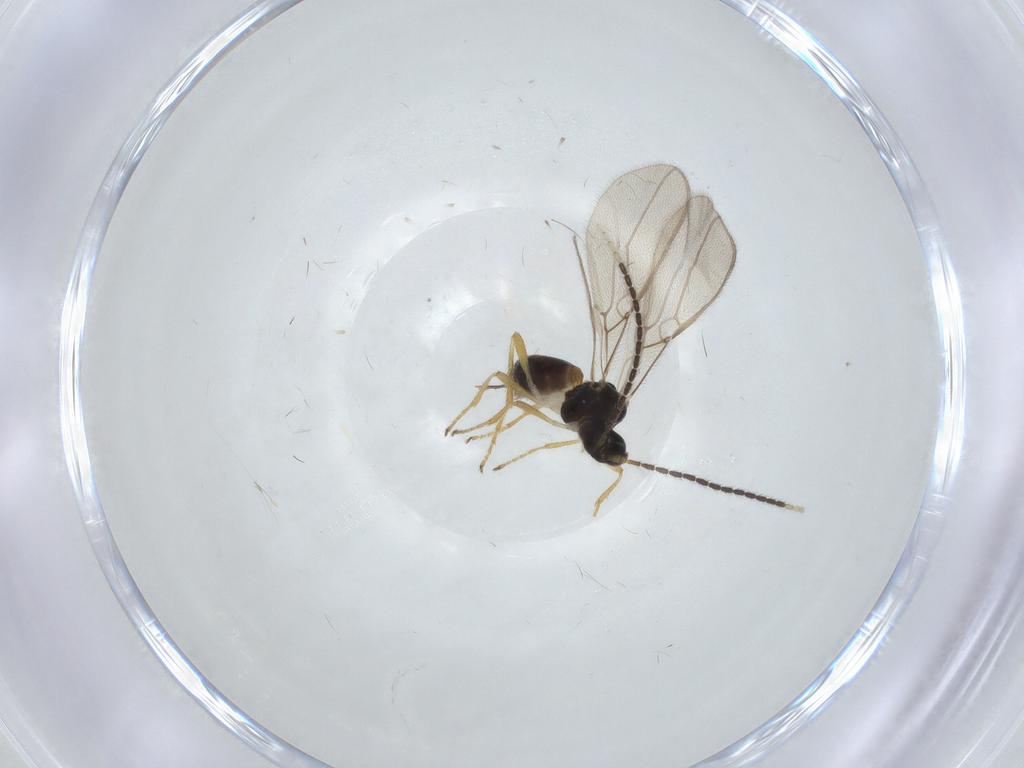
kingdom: Animalia
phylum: Arthropoda
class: Insecta
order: Hymenoptera
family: Braconidae
